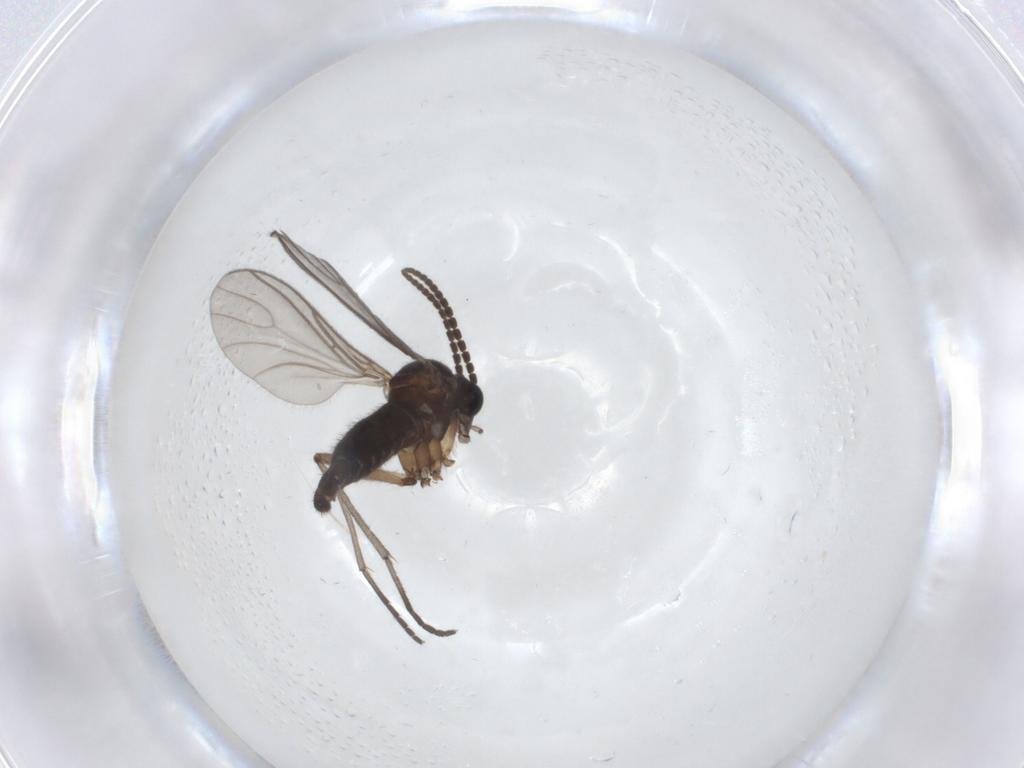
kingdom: Animalia
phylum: Arthropoda
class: Insecta
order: Diptera
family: Sciaridae
